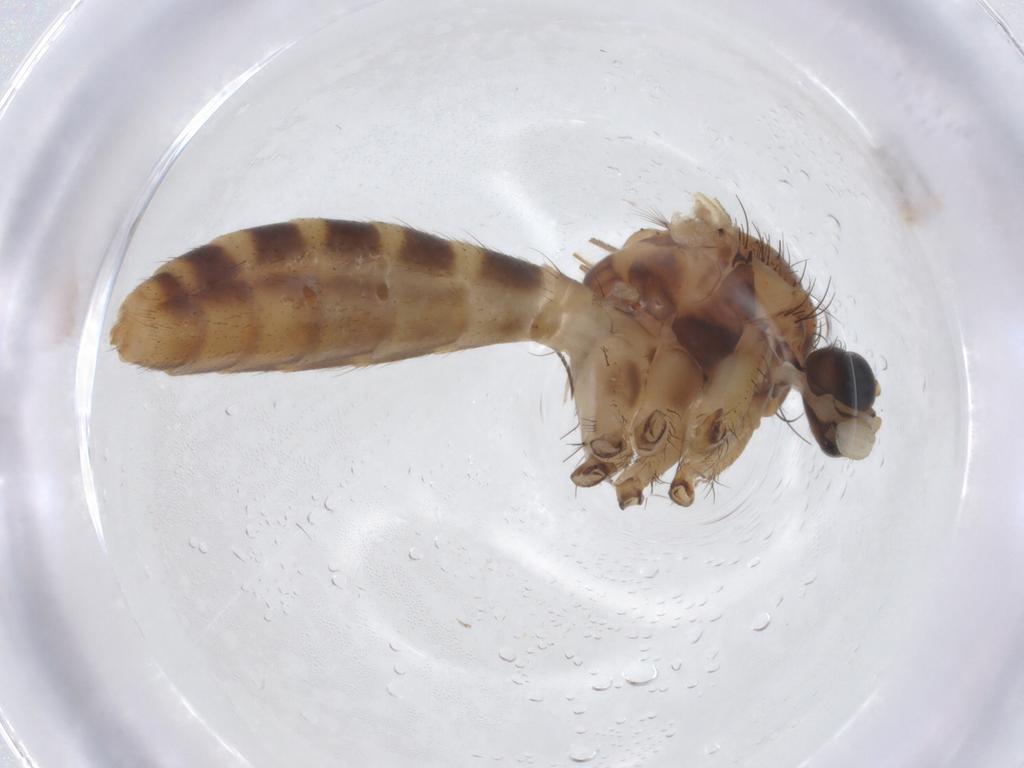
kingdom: Animalia
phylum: Arthropoda
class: Insecta
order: Diptera
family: Mycetophilidae
